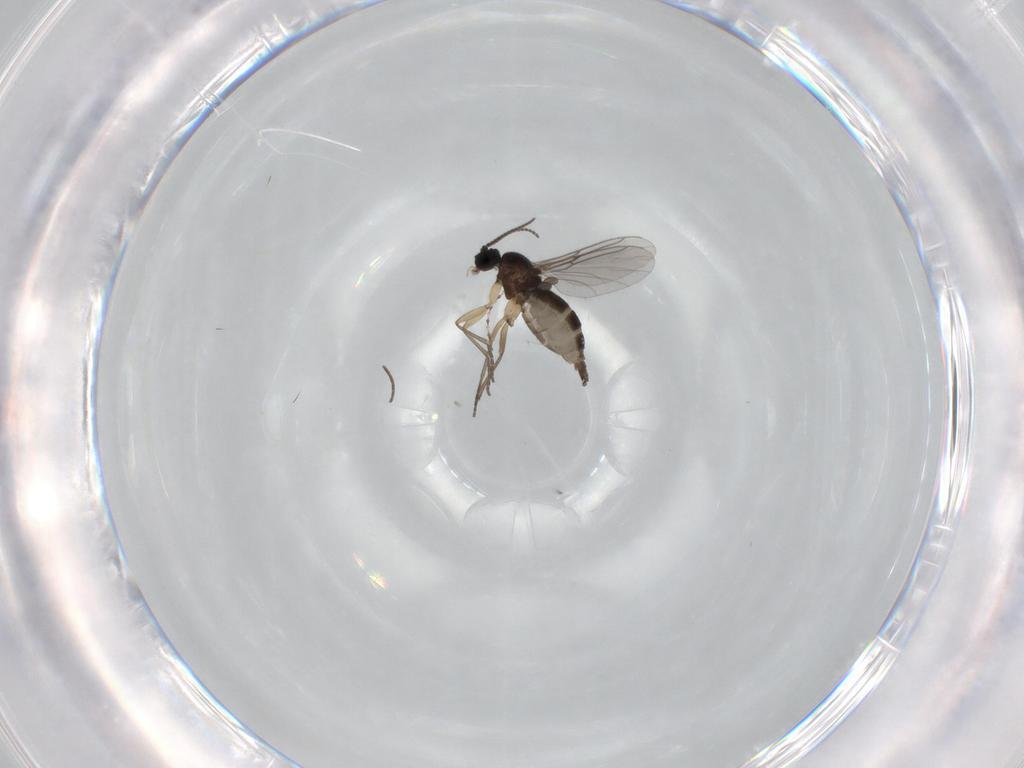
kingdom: Animalia
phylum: Arthropoda
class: Insecta
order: Diptera
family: Sciaridae
